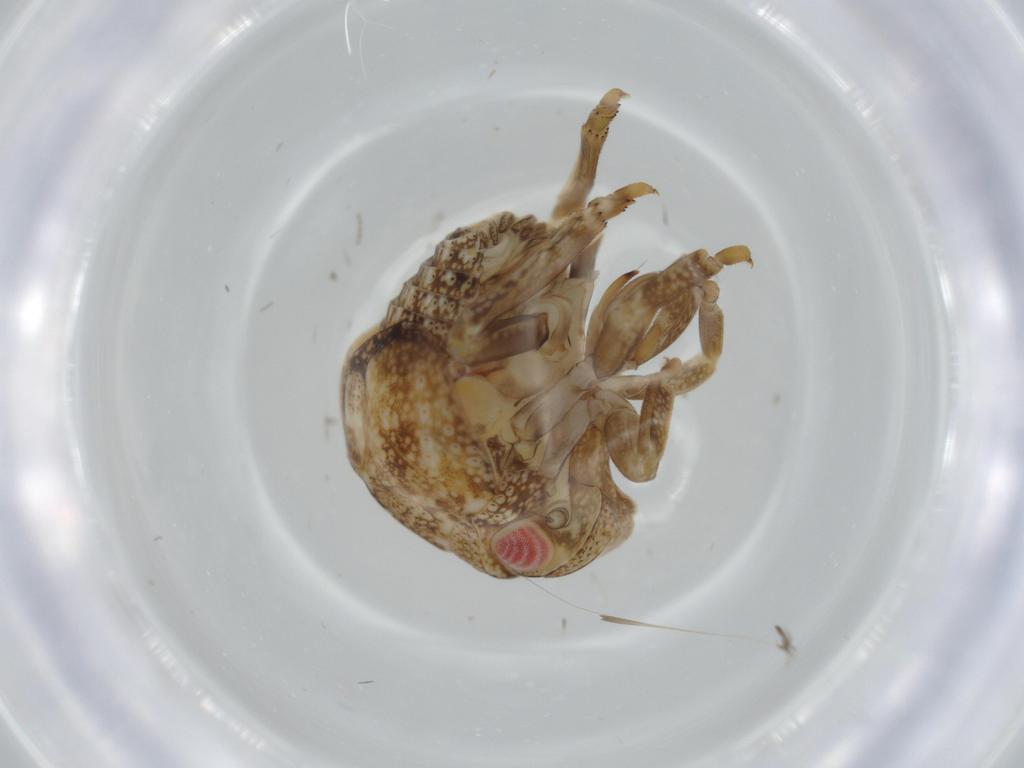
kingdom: Animalia
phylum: Arthropoda
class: Insecta
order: Hemiptera
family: Acanaloniidae
